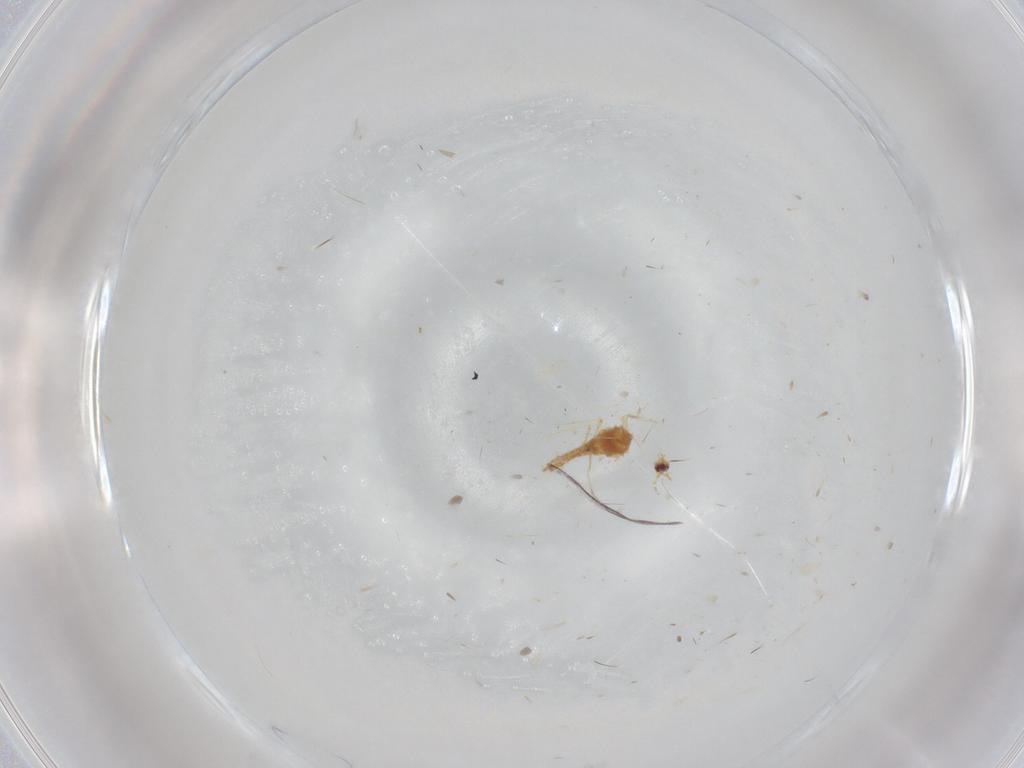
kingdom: Animalia
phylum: Arthropoda
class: Insecta
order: Diptera
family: Glossinidae
